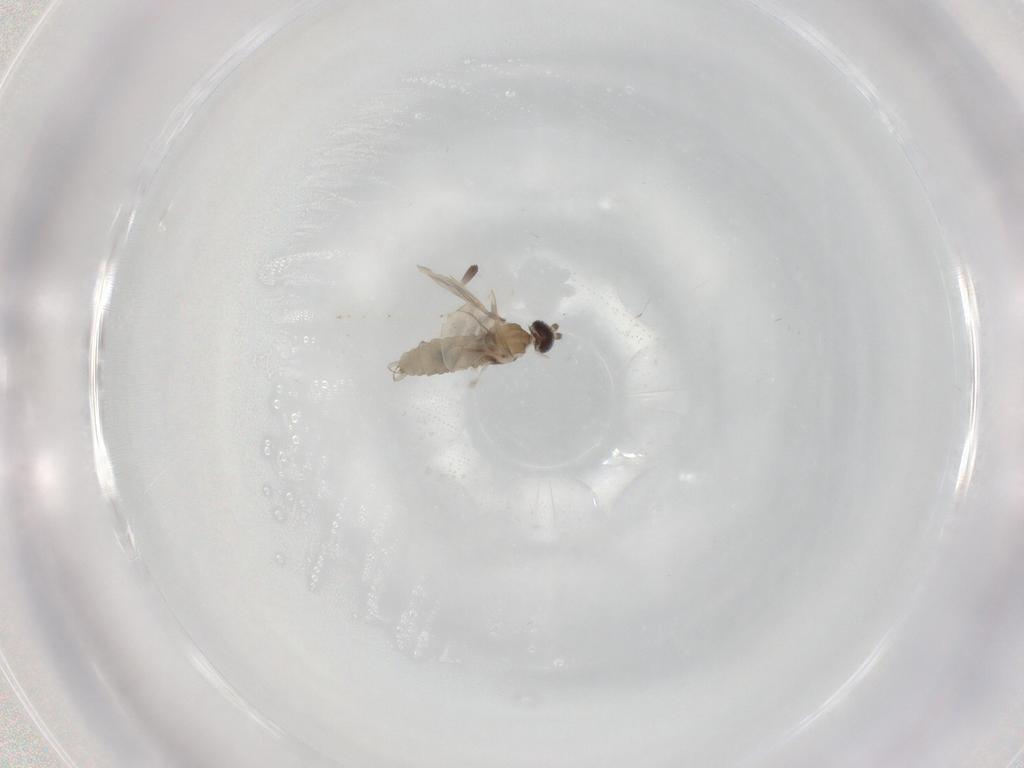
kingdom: Animalia
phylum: Arthropoda
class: Insecta
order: Diptera
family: Cecidomyiidae
